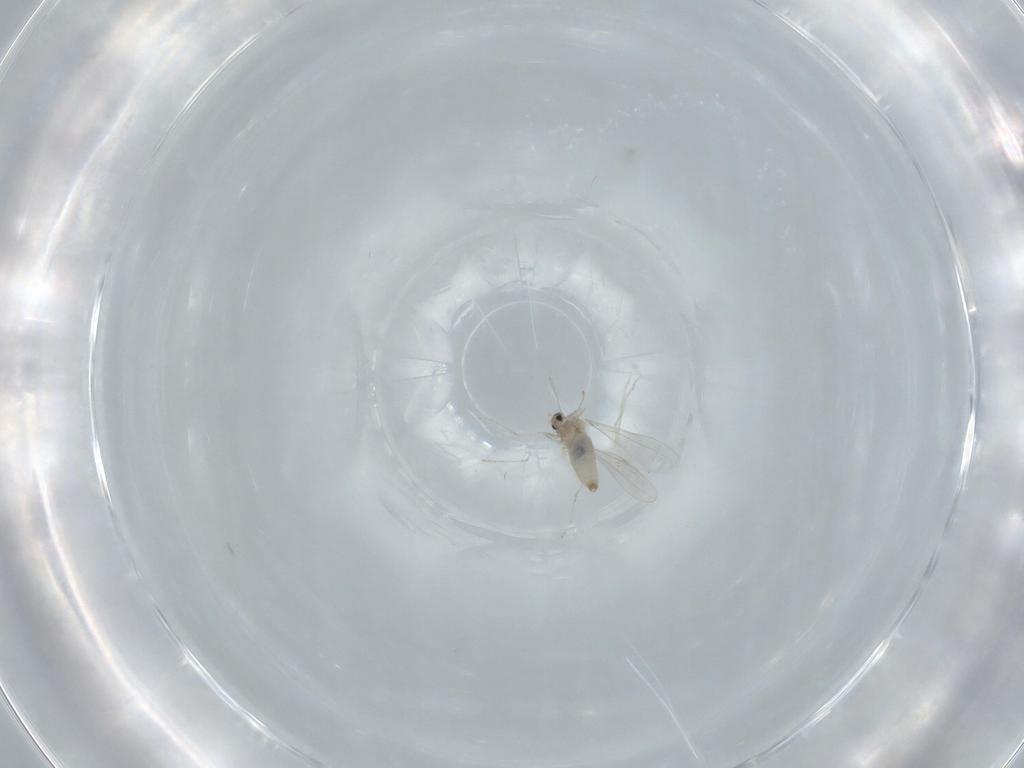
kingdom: Animalia
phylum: Arthropoda
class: Insecta
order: Diptera
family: Cecidomyiidae
